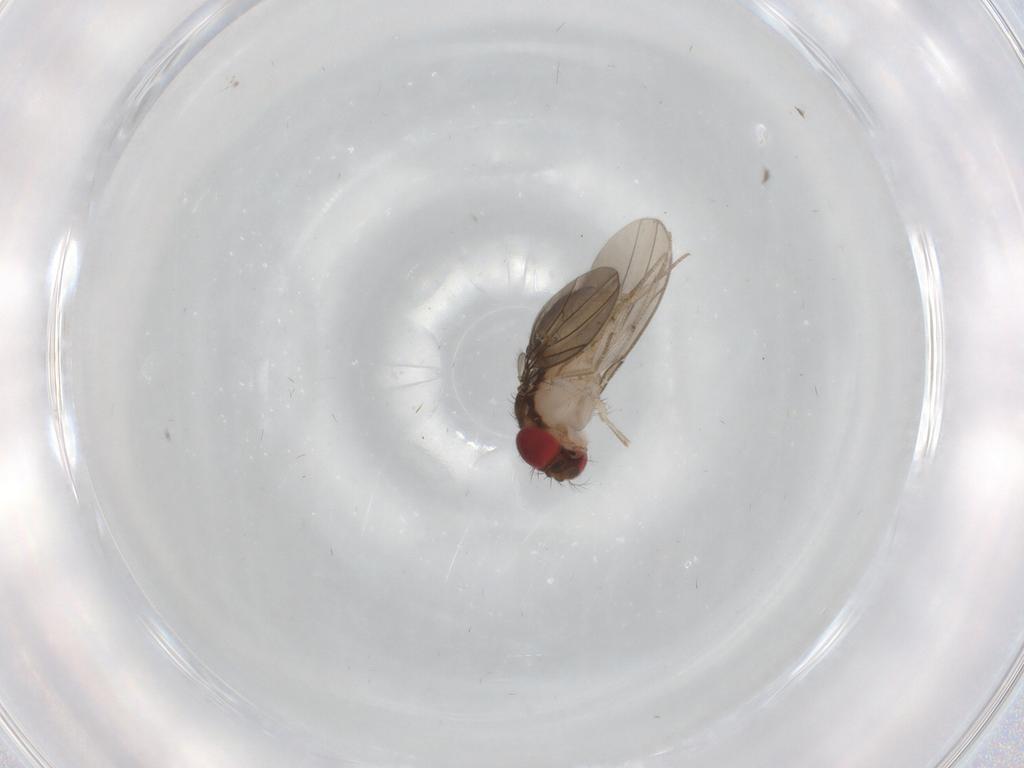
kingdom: Animalia
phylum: Arthropoda
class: Insecta
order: Diptera
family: Drosophilidae
